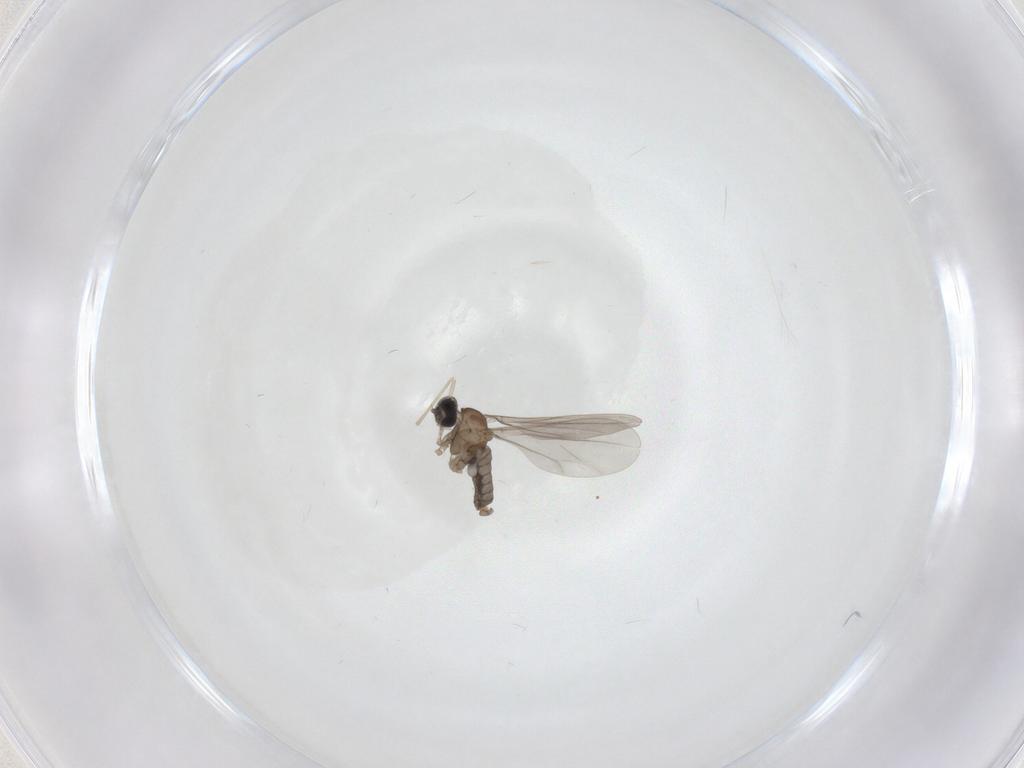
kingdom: Animalia
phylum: Arthropoda
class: Insecta
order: Diptera
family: Cecidomyiidae
